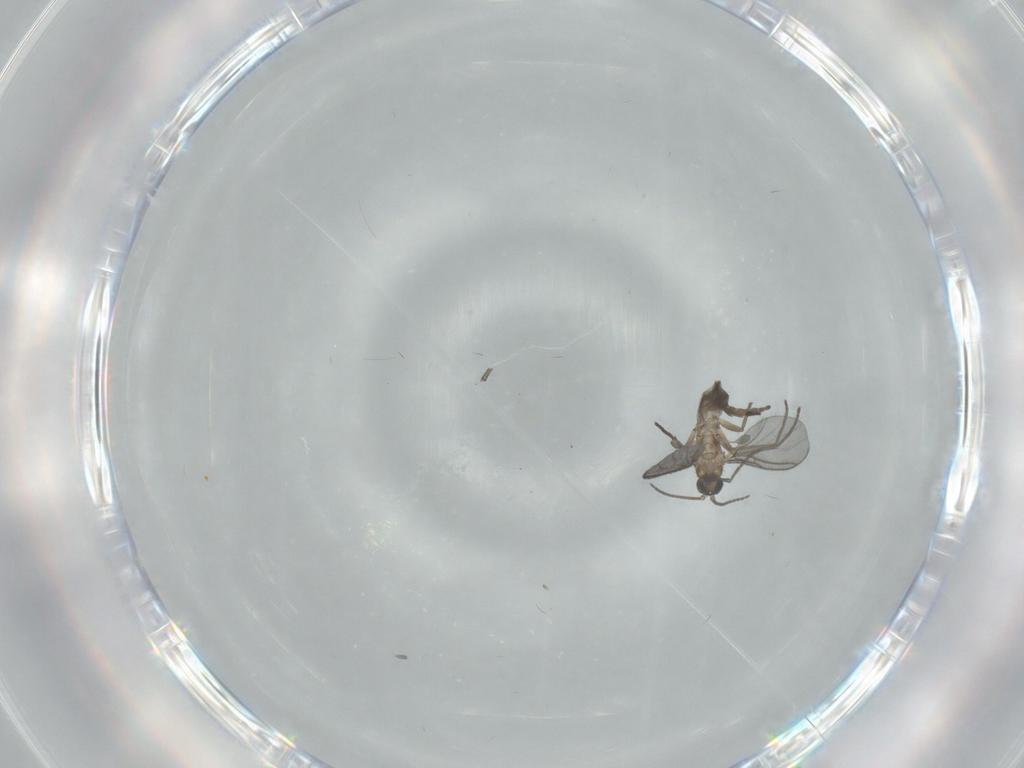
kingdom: Animalia
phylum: Arthropoda
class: Insecta
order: Diptera
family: Sciaridae
